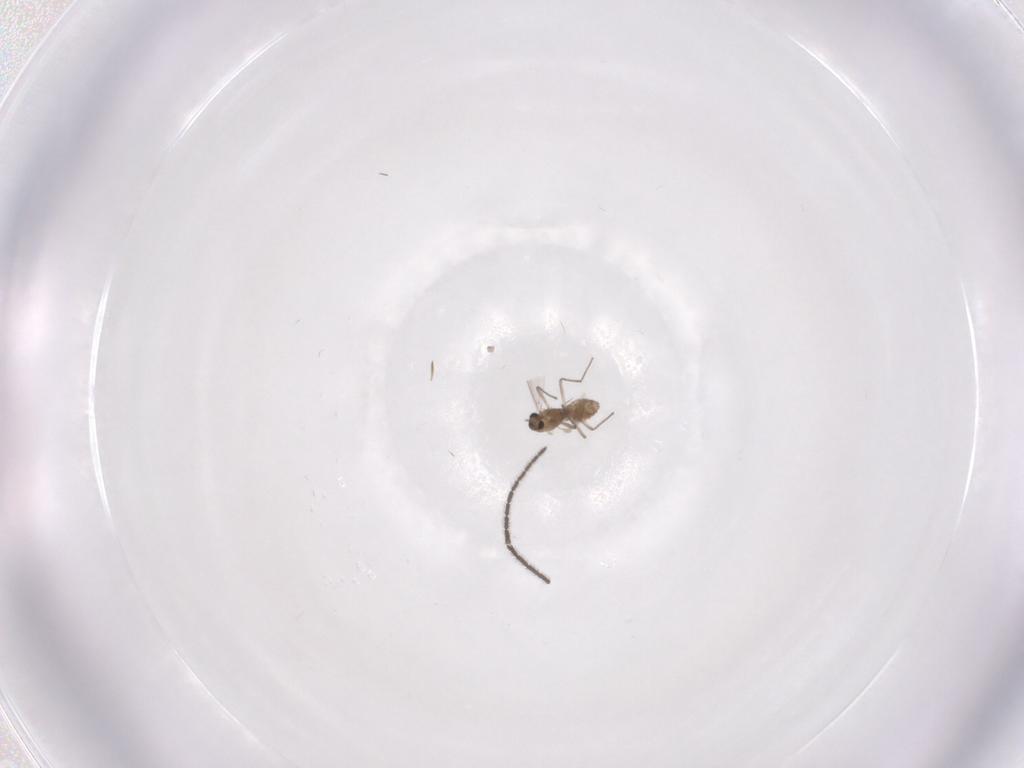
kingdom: Animalia
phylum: Arthropoda
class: Insecta
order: Diptera
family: Chironomidae
